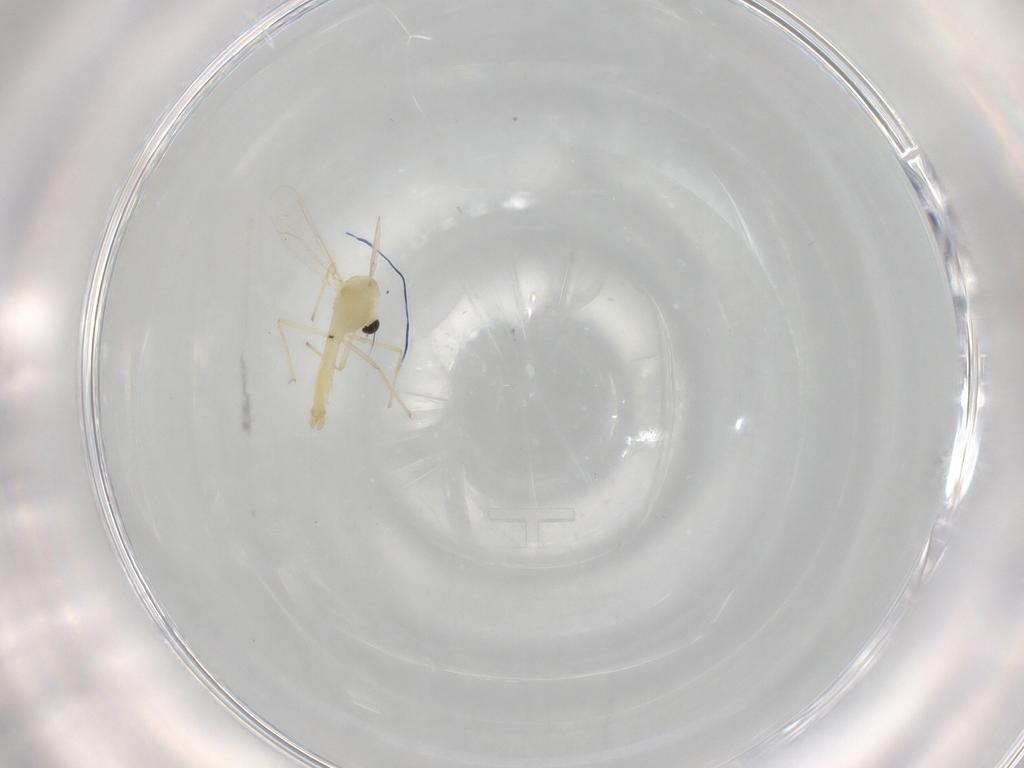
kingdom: Animalia
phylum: Arthropoda
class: Insecta
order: Diptera
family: Chironomidae
